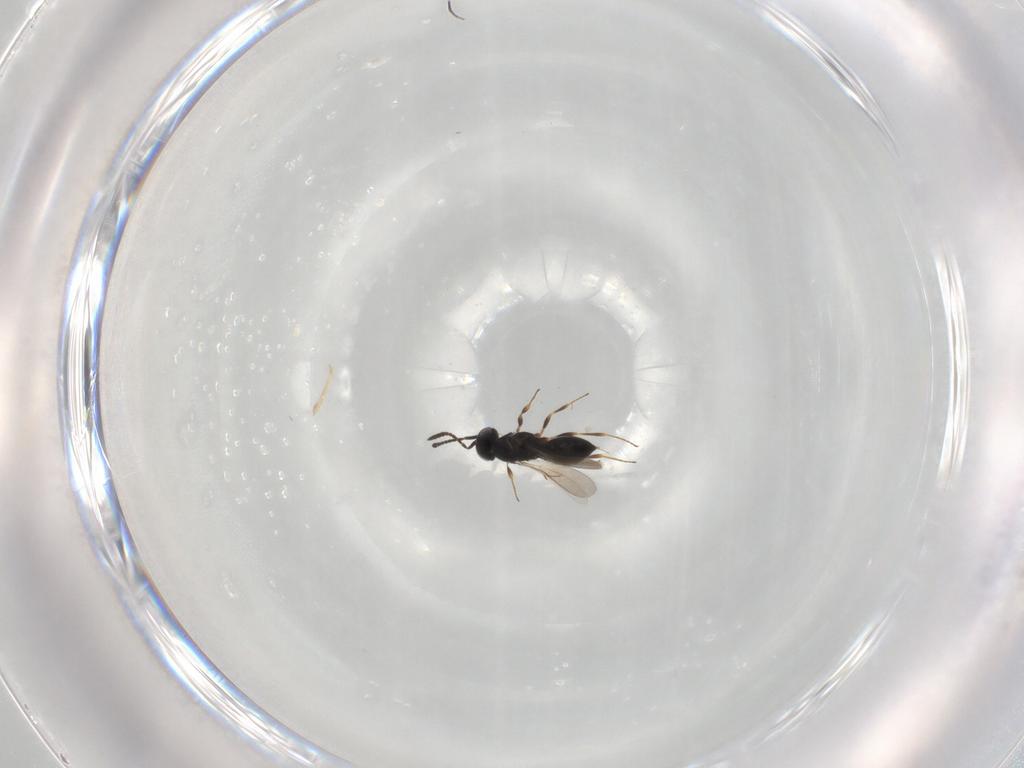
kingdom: Animalia
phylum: Arthropoda
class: Insecta
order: Hymenoptera
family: Scelionidae
